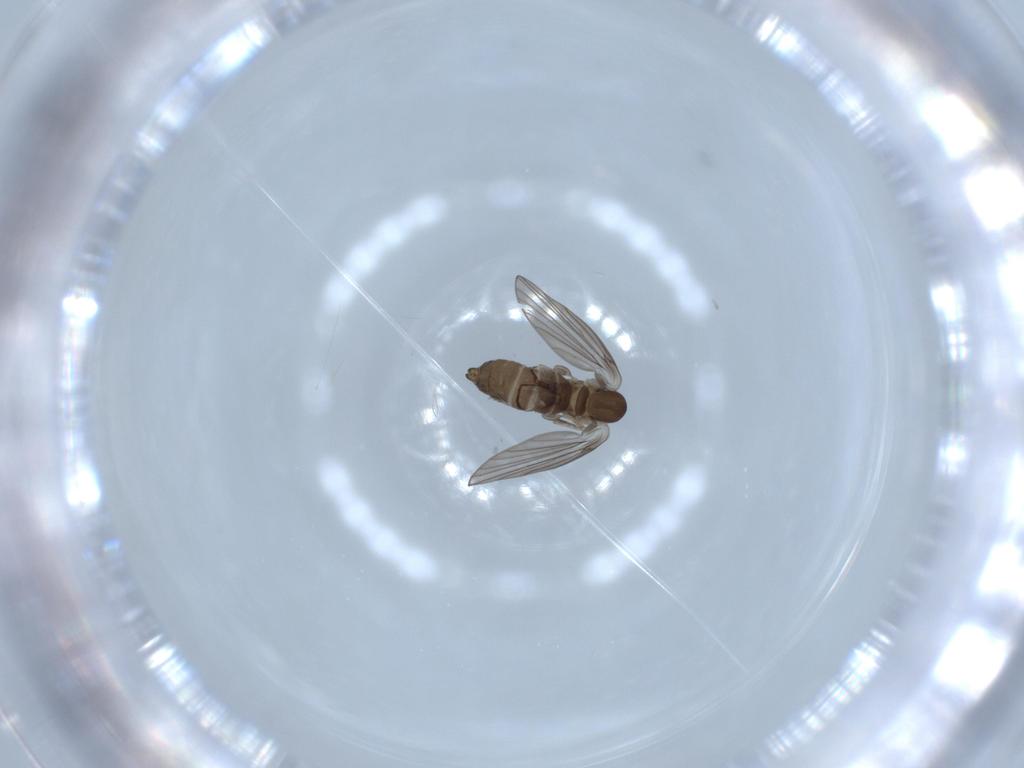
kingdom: Animalia
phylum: Arthropoda
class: Insecta
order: Diptera
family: Psychodidae
